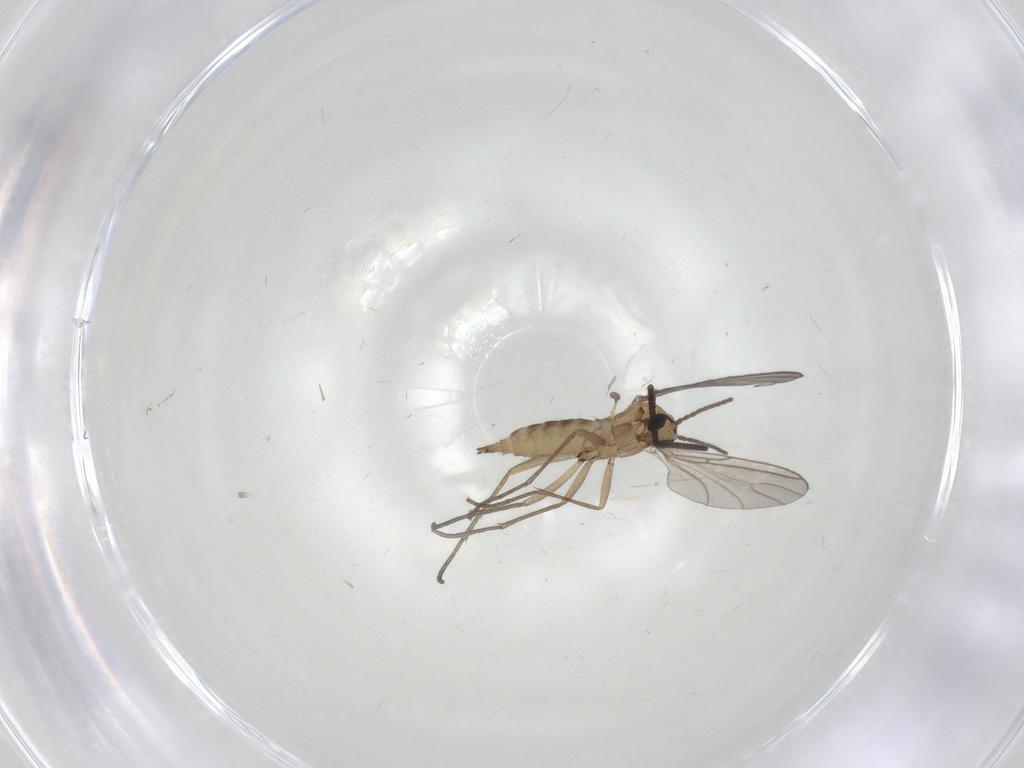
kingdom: Animalia
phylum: Arthropoda
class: Insecta
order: Diptera
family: Sciaridae
